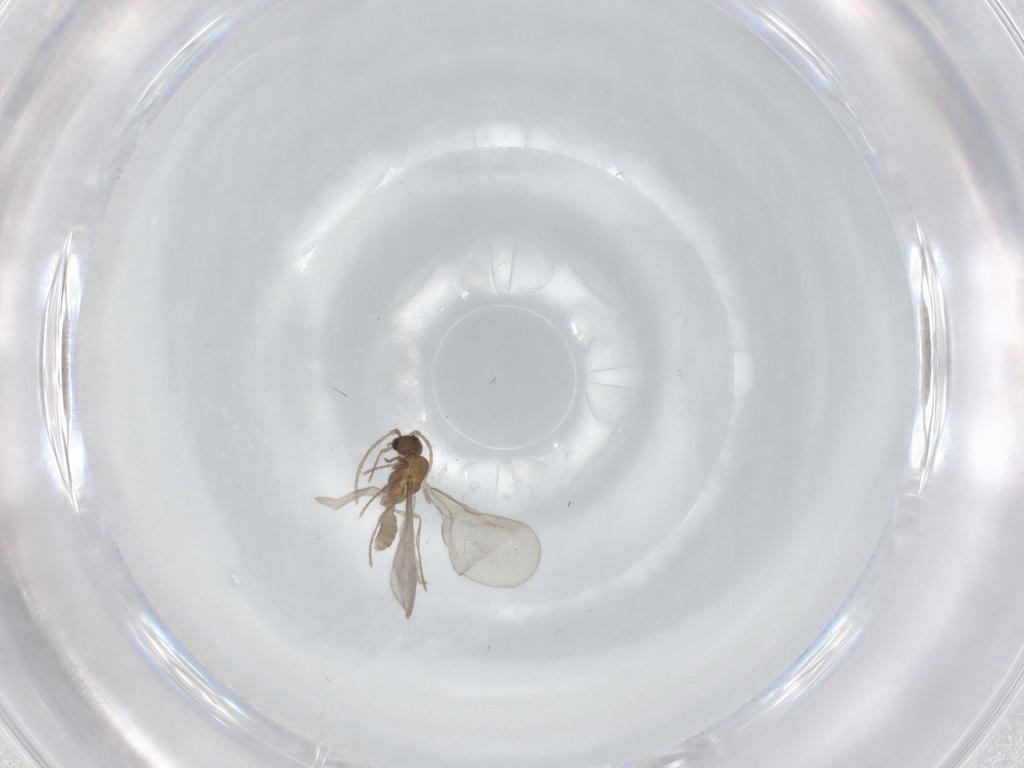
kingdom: Animalia
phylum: Arthropoda
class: Insecta
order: Hymenoptera
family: Formicidae
